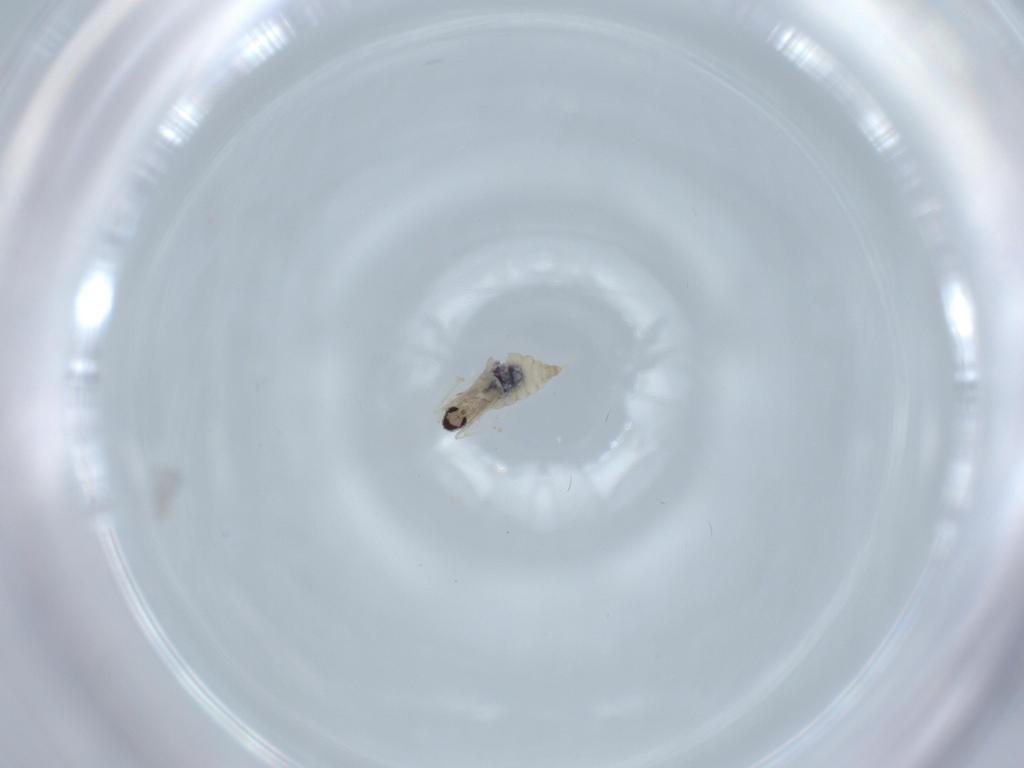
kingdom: Animalia
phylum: Arthropoda
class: Insecta
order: Diptera
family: Cecidomyiidae
